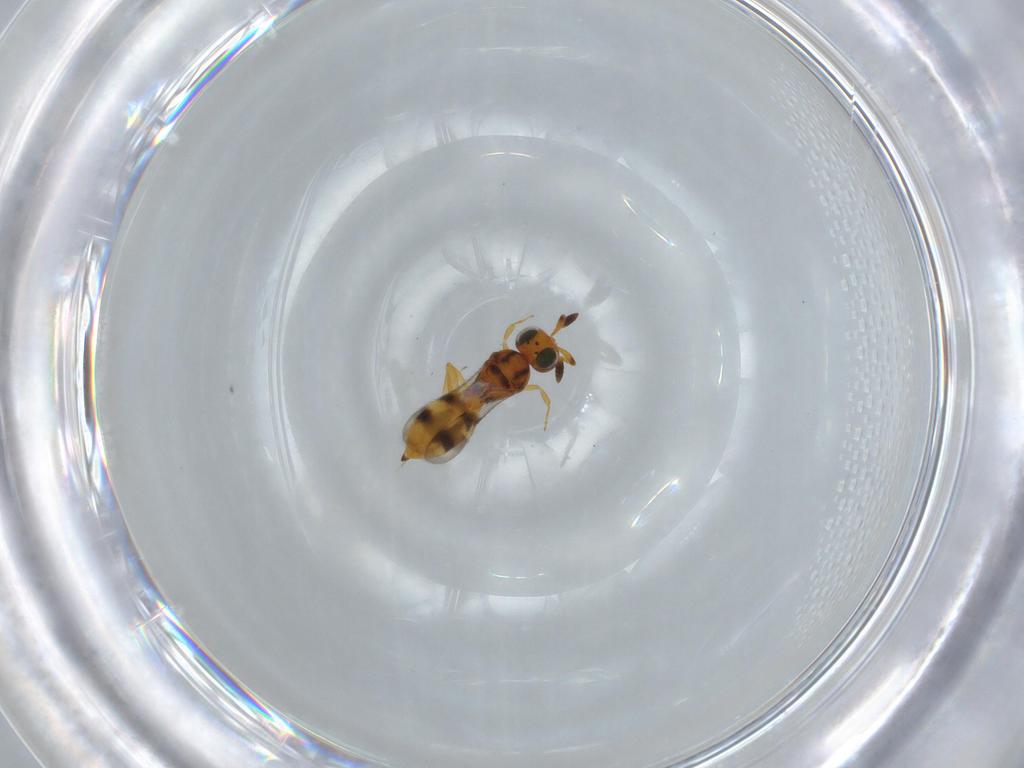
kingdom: Animalia
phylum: Arthropoda
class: Insecta
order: Hymenoptera
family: Scelionidae
